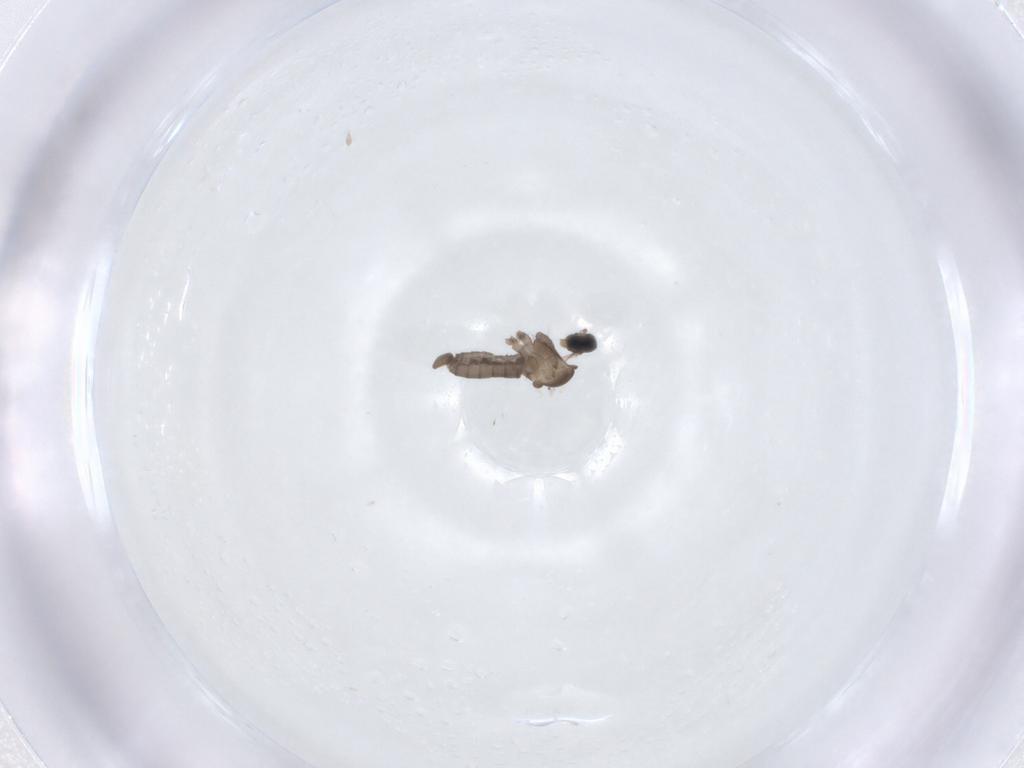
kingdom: Animalia
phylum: Arthropoda
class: Insecta
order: Diptera
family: Cecidomyiidae
